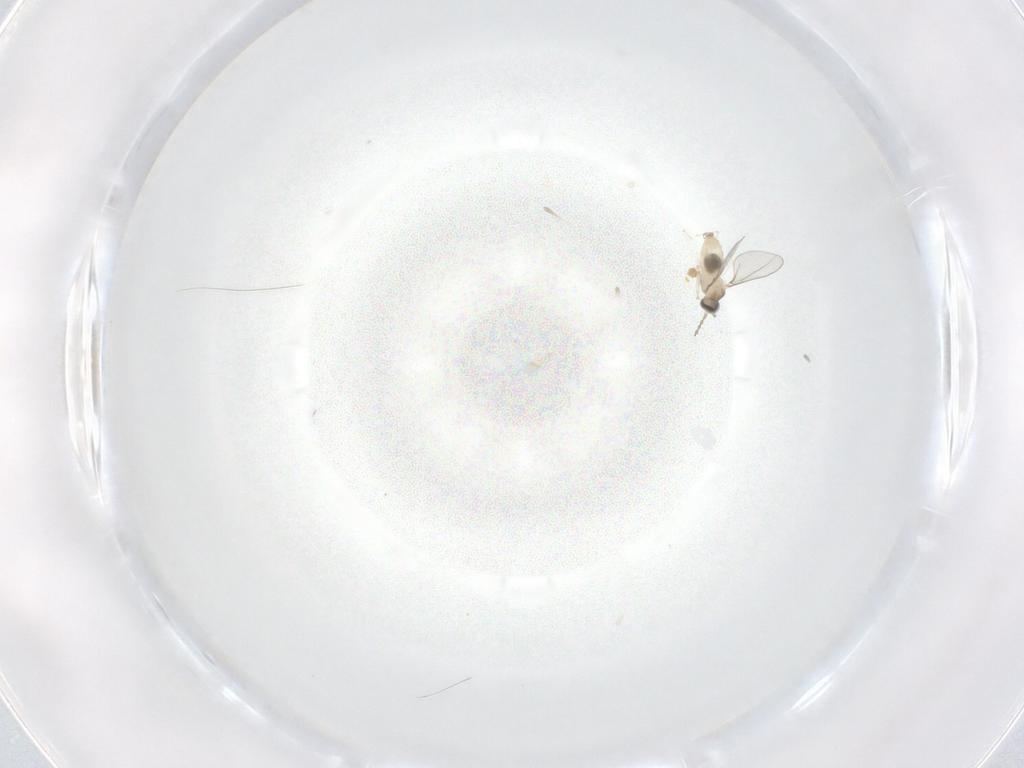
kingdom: Animalia
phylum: Arthropoda
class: Insecta
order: Diptera
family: Cecidomyiidae
